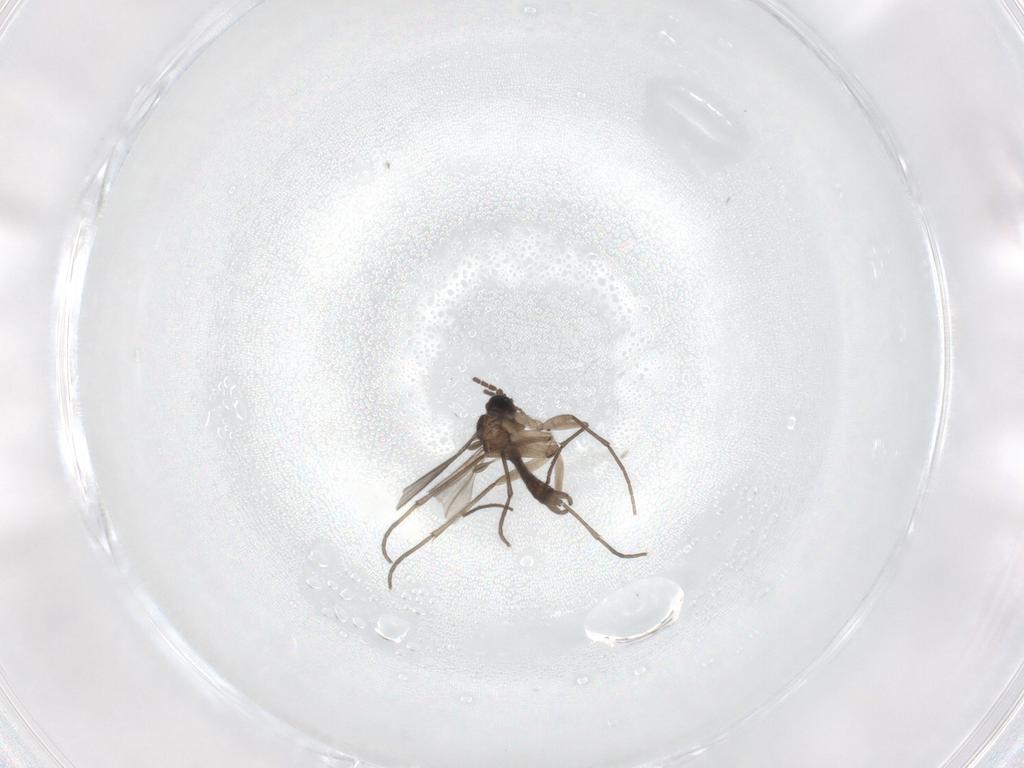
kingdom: Animalia
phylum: Arthropoda
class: Insecta
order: Diptera
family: Chironomidae
